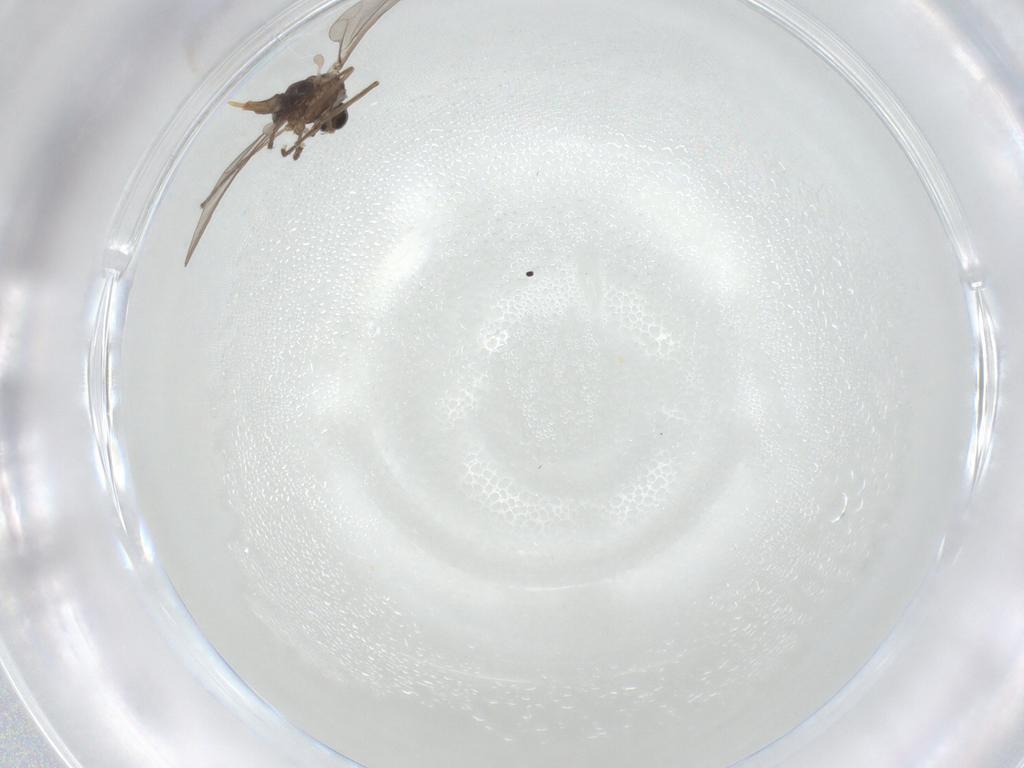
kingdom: Animalia
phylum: Arthropoda
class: Insecta
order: Diptera
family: Cecidomyiidae
